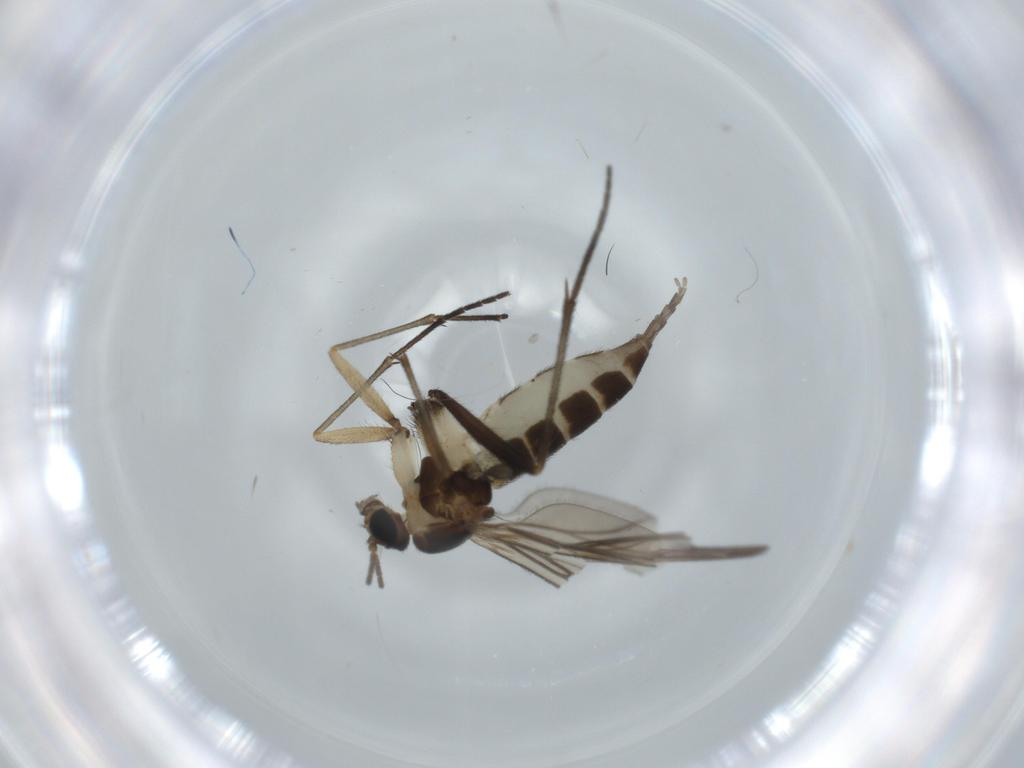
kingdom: Animalia
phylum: Arthropoda
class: Insecta
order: Diptera
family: Sciaridae
